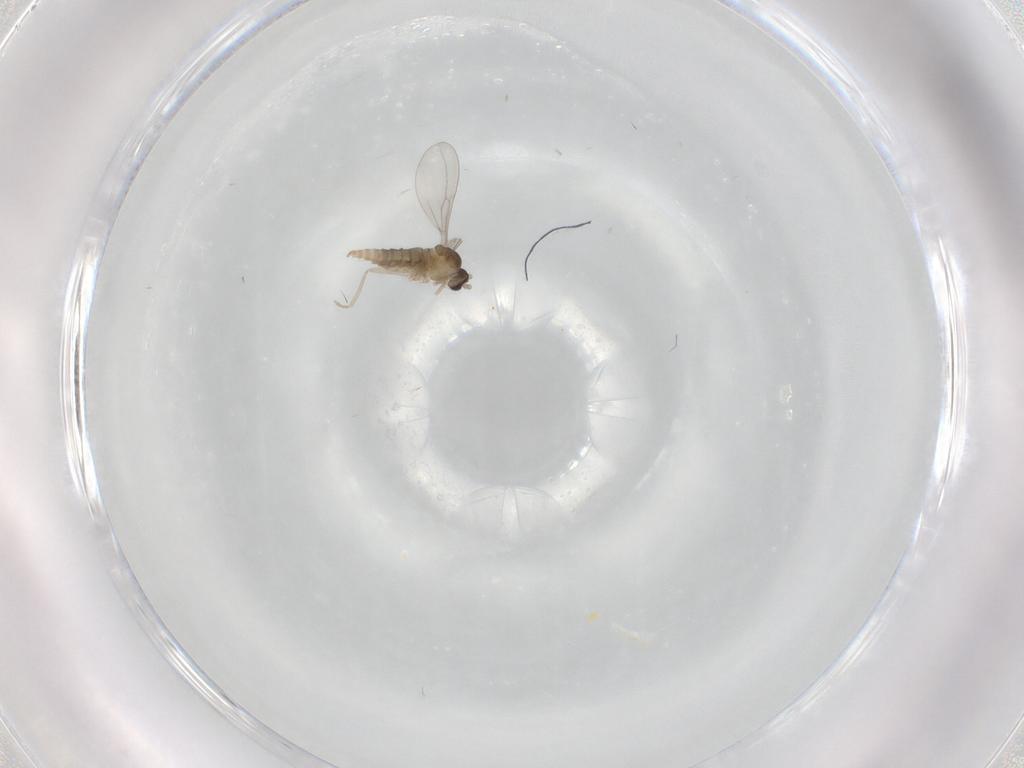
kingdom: Animalia
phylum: Arthropoda
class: Insecta
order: Diptera
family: Cecidomyiidae
